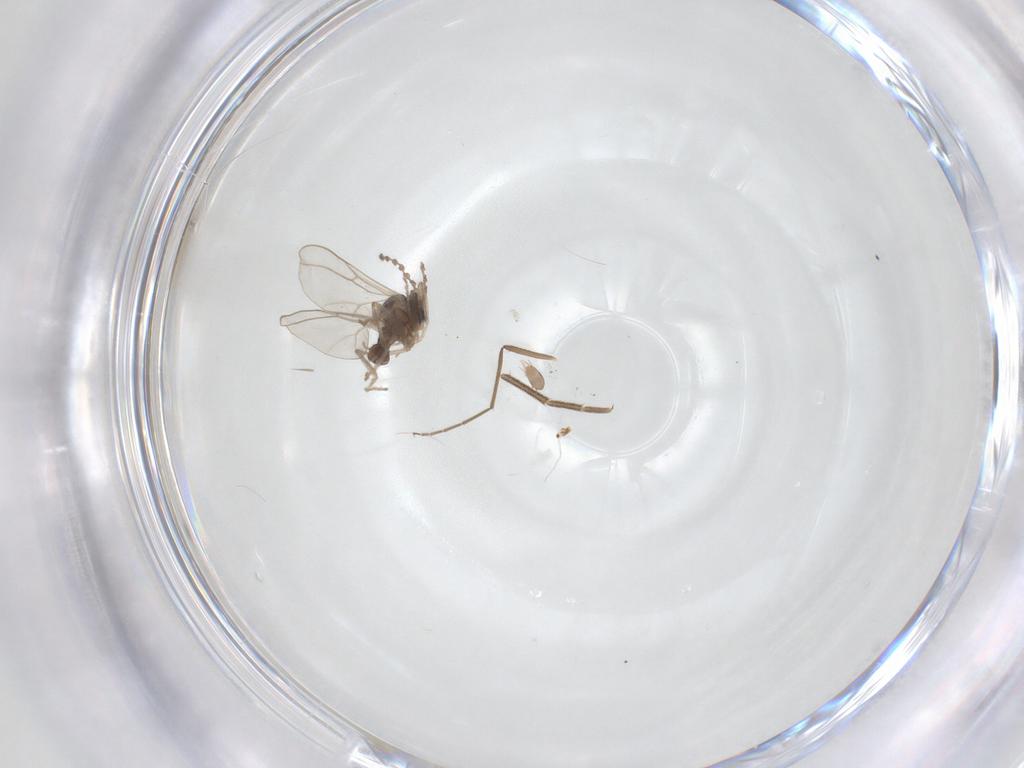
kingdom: Animalia
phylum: Arthropoda
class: Insecta
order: Diptera
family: Cecidomyiidae
